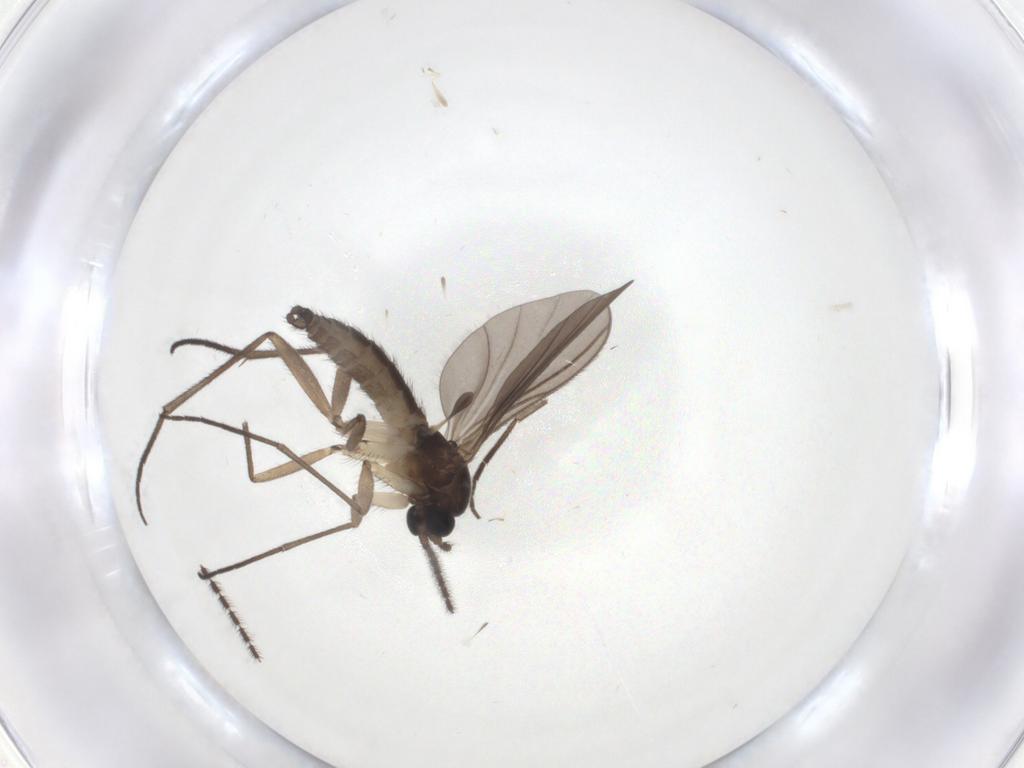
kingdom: Animalia
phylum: Arthropoda
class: Insecta
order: Diptera
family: Sciaridae
